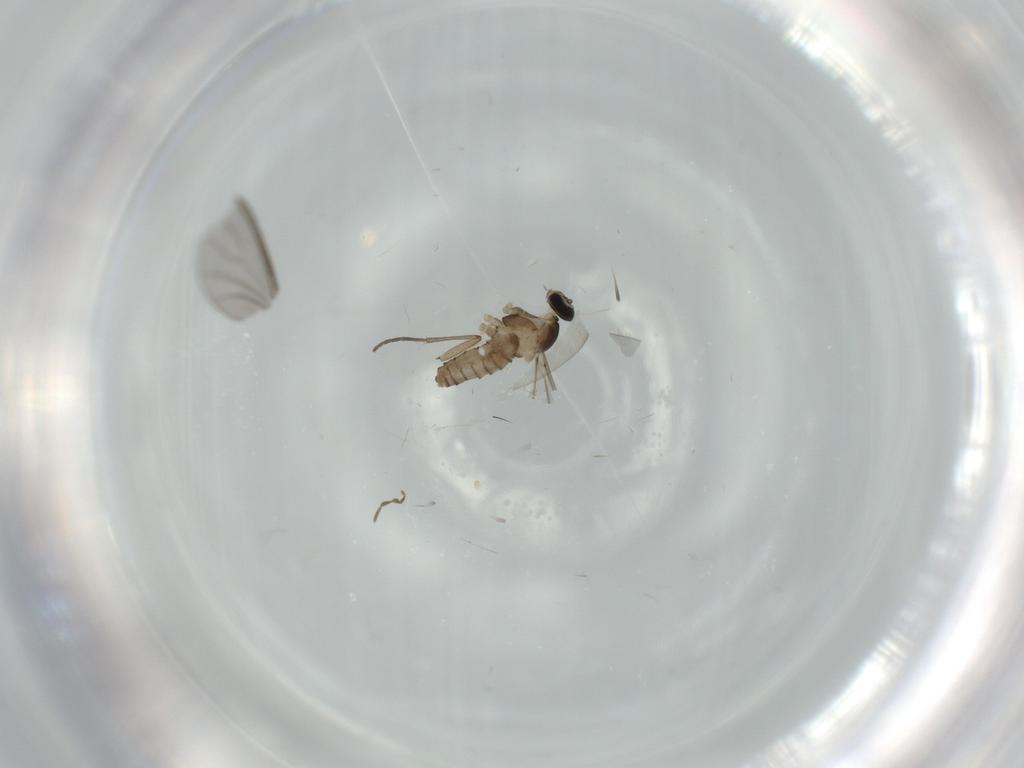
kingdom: Animalia
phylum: Arthropoda
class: Insecta
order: Diptera
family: Cecidomyiidae
